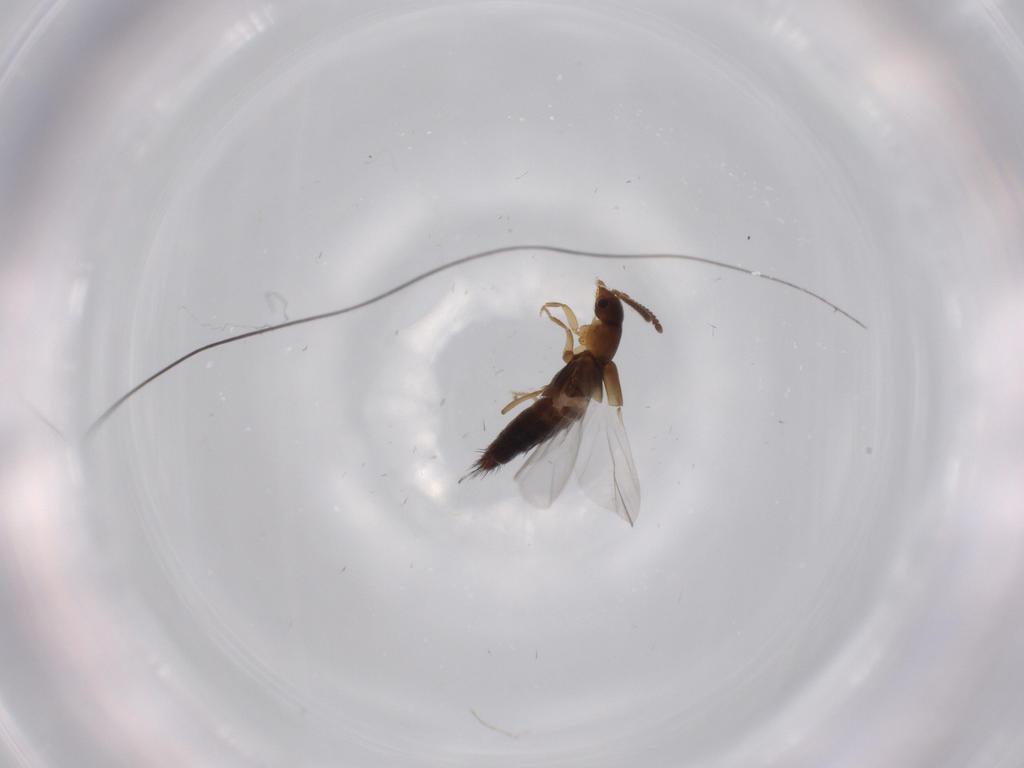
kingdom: Animalia
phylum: Arthropoda
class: Insecta
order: Coleoptera
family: Staphylinidae
